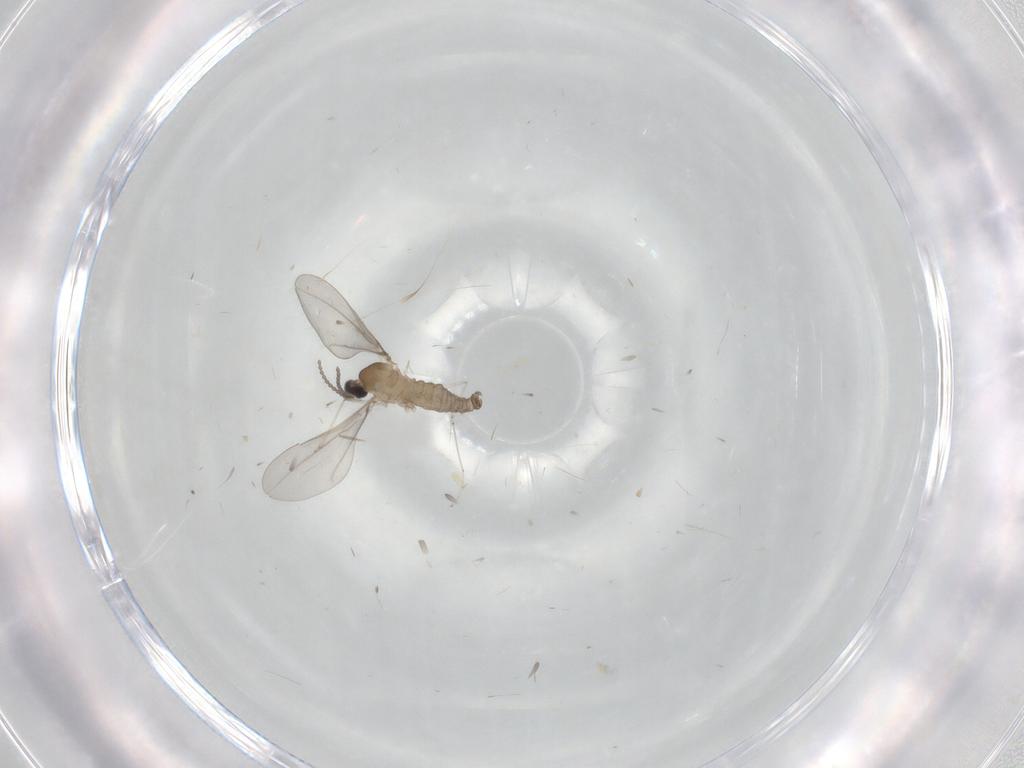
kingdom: Animalia
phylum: Arthropoda
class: Insecta
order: Diptera
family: Cecidomyiidae
